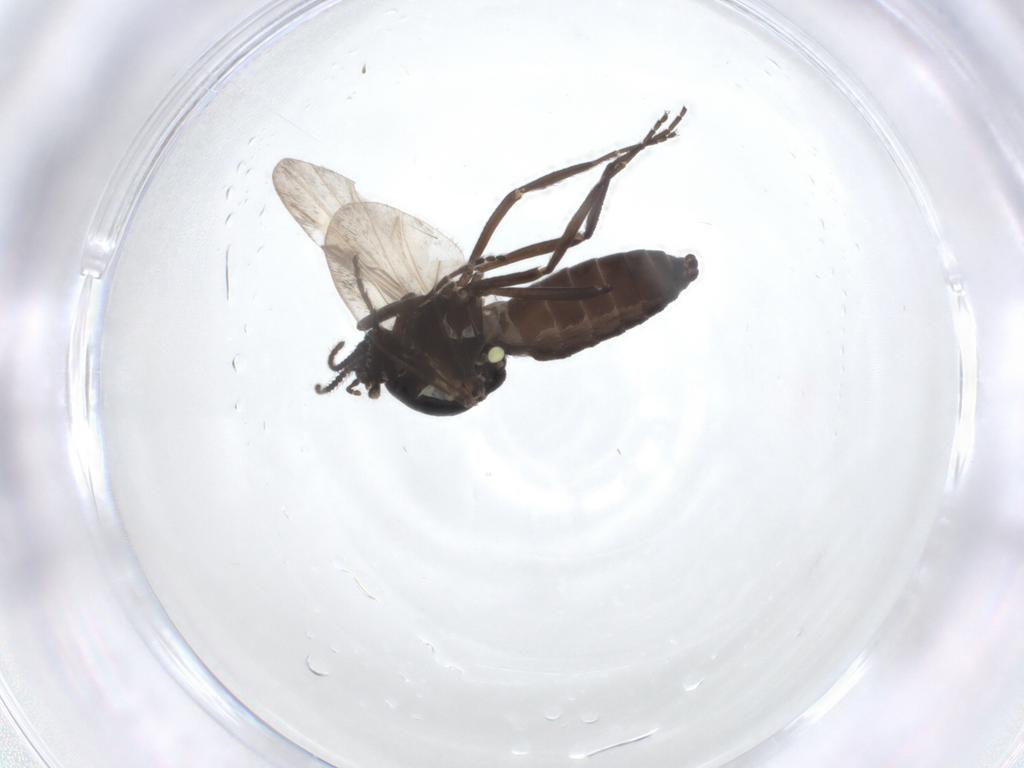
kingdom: Animalia
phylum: Arthropoda
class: Insecta
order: Diptera
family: Ceratopogonidae
